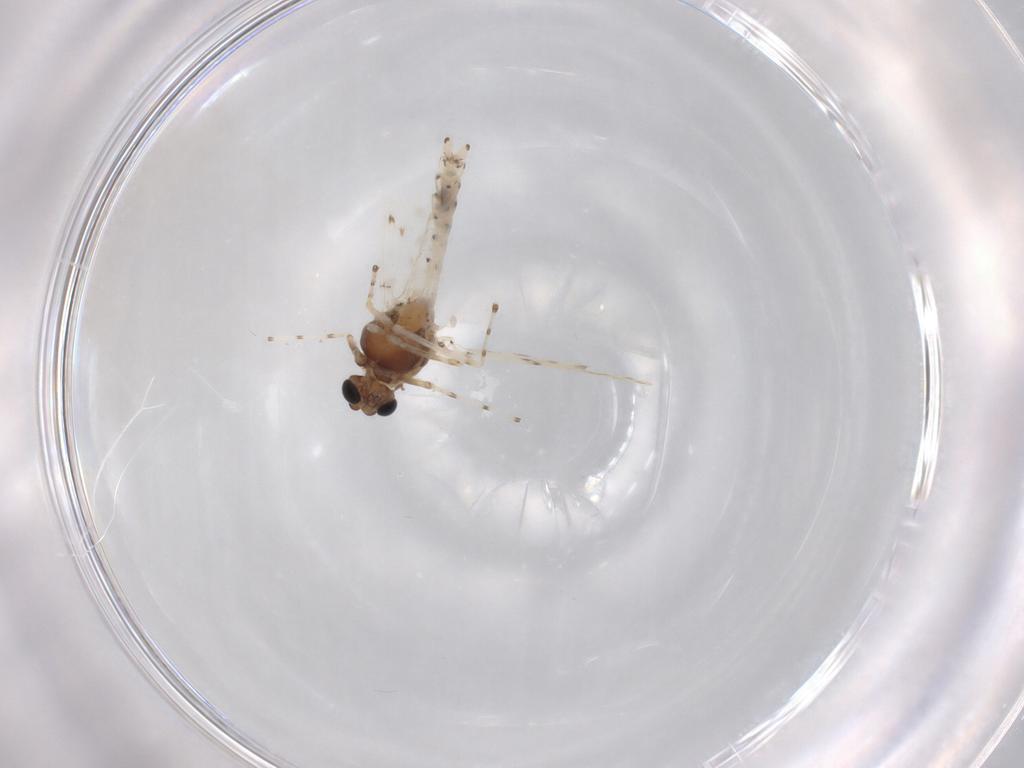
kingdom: Animalia
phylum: Arthropoda
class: Insecta
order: Diptera
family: Chironomidae
